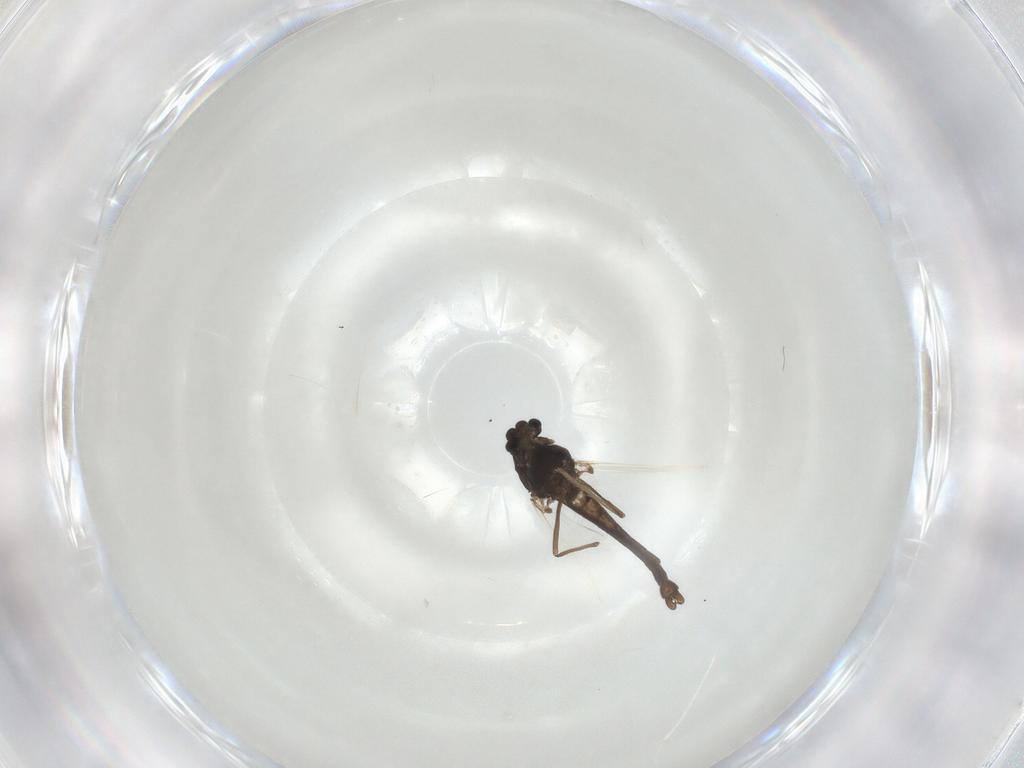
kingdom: Animalia
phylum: Arthropoda
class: Insecta
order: Diptera
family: Chironomidae
